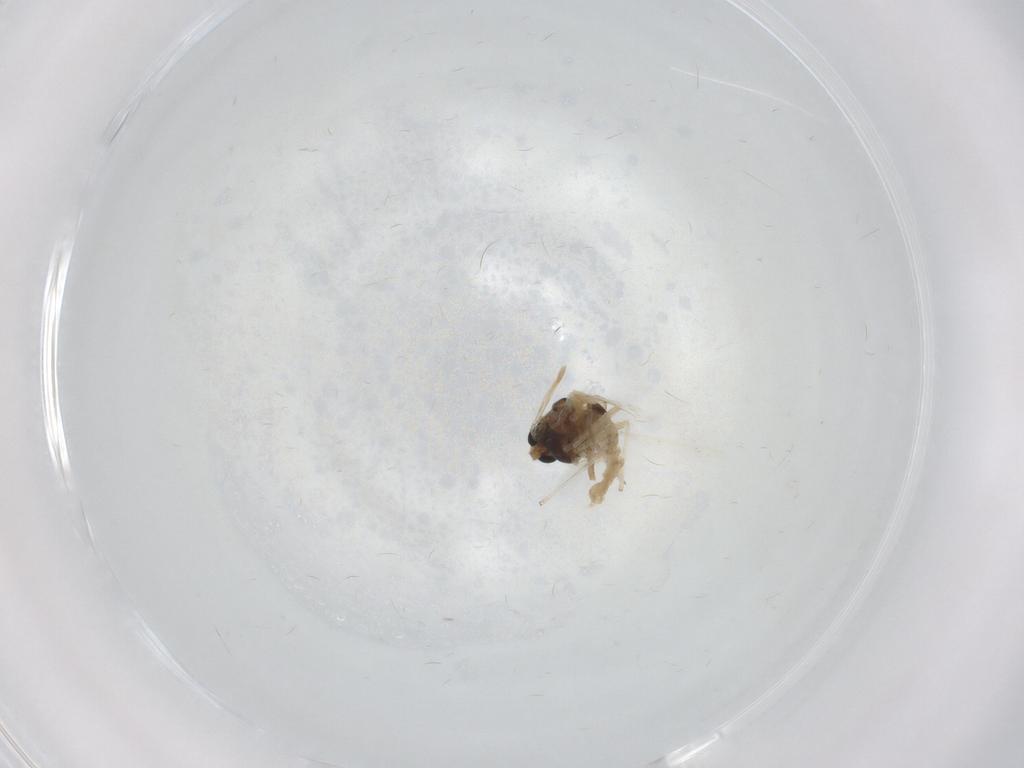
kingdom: Animalia
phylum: Arthropoda
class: Insecta
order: Diptera
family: Chironomidae
